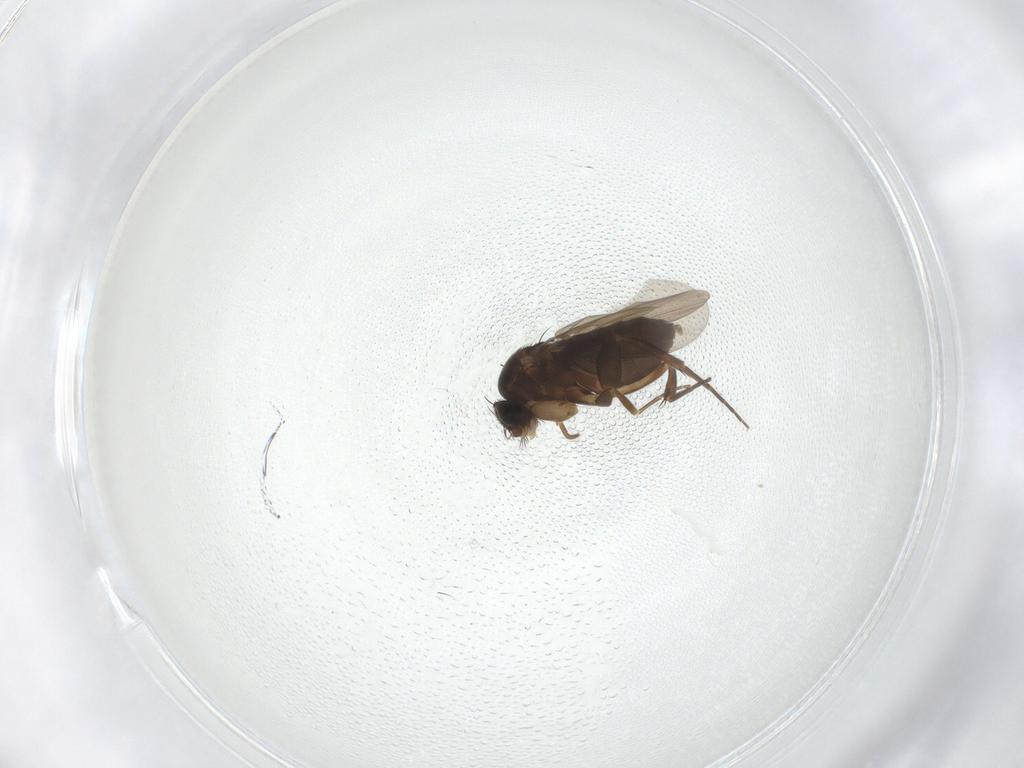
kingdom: Animalia
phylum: Arthropoda
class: Insecta
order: Diptera
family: Phoridae
